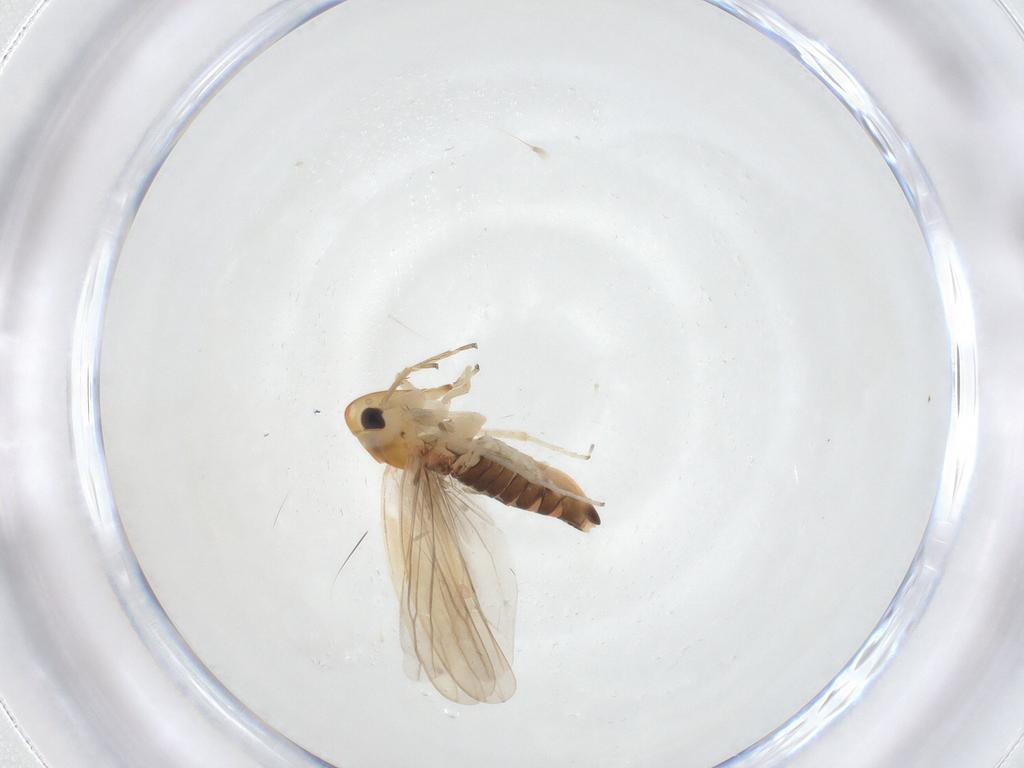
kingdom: Animalia
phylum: Arthropoda
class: Insecta
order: Lepidoptera
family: Cosmopterigidae
